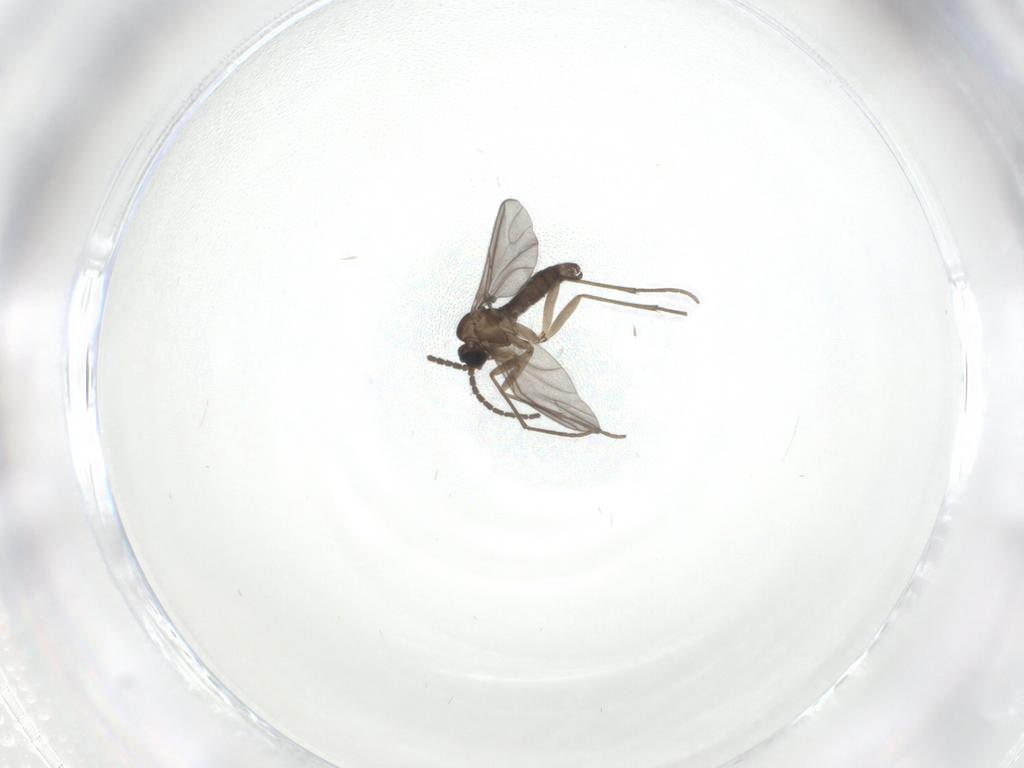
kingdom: Animalia
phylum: Arthropoda
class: Insecta
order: Diptera
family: Sciaridae
